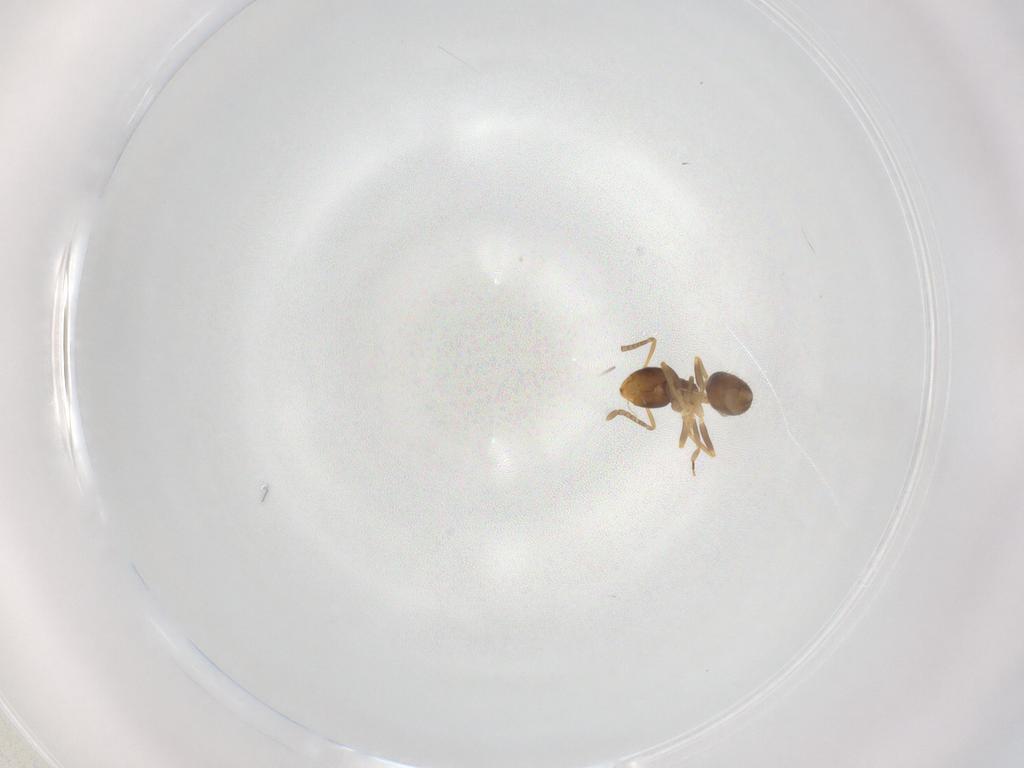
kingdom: Animalia
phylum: Arthropoda
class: Insecta
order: Hymenoptera
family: Formicidae
